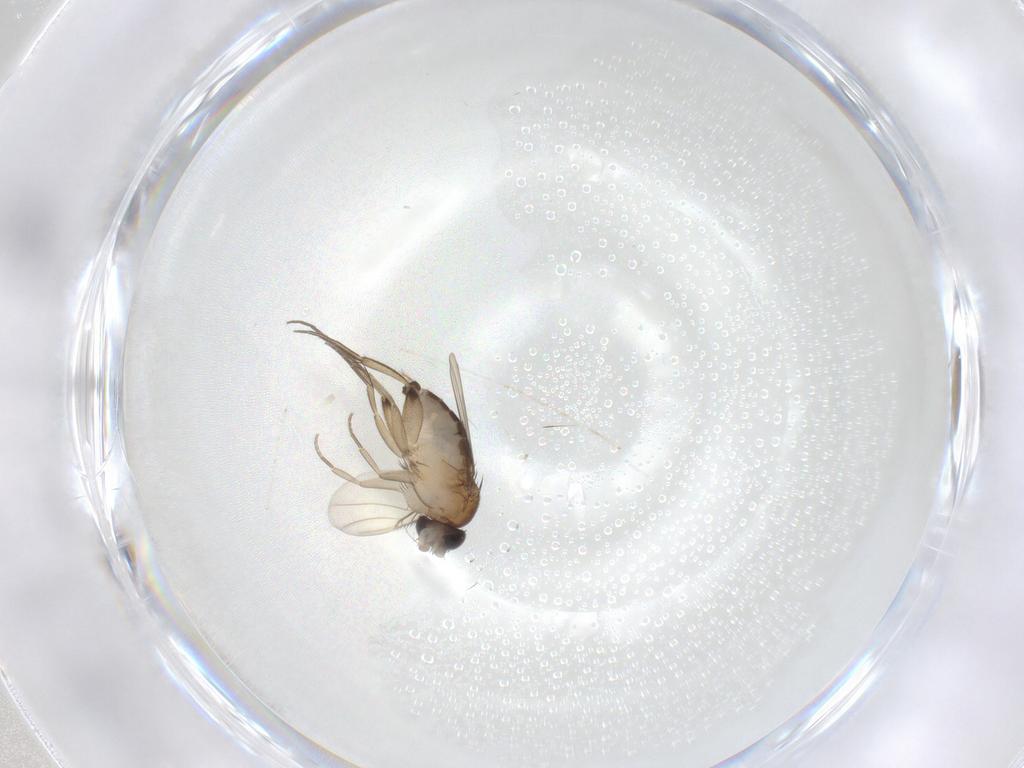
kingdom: Animalia
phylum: Arthropoda
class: Insecta
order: Diptera
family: Phoridae
